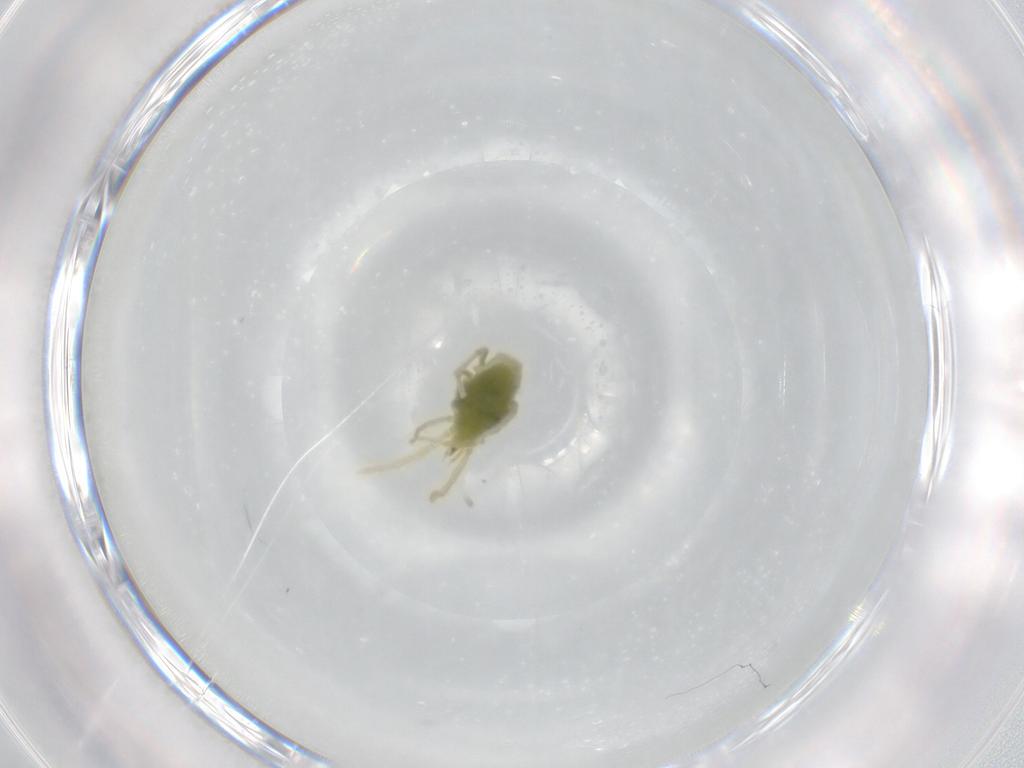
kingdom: Animalia
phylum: Arthropoda
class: Arachnida
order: Trombidiformes
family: Erythraeidae
